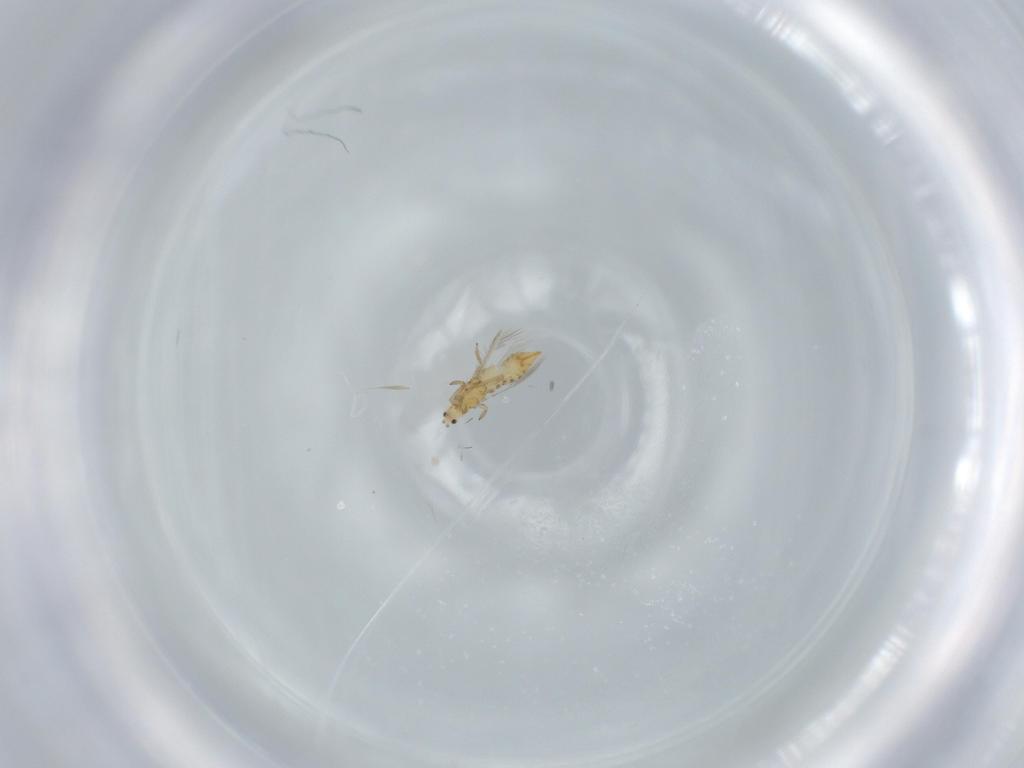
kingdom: Animalia
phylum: Arthropoda
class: Insecta
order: Thysanoptera
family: Thripidae
